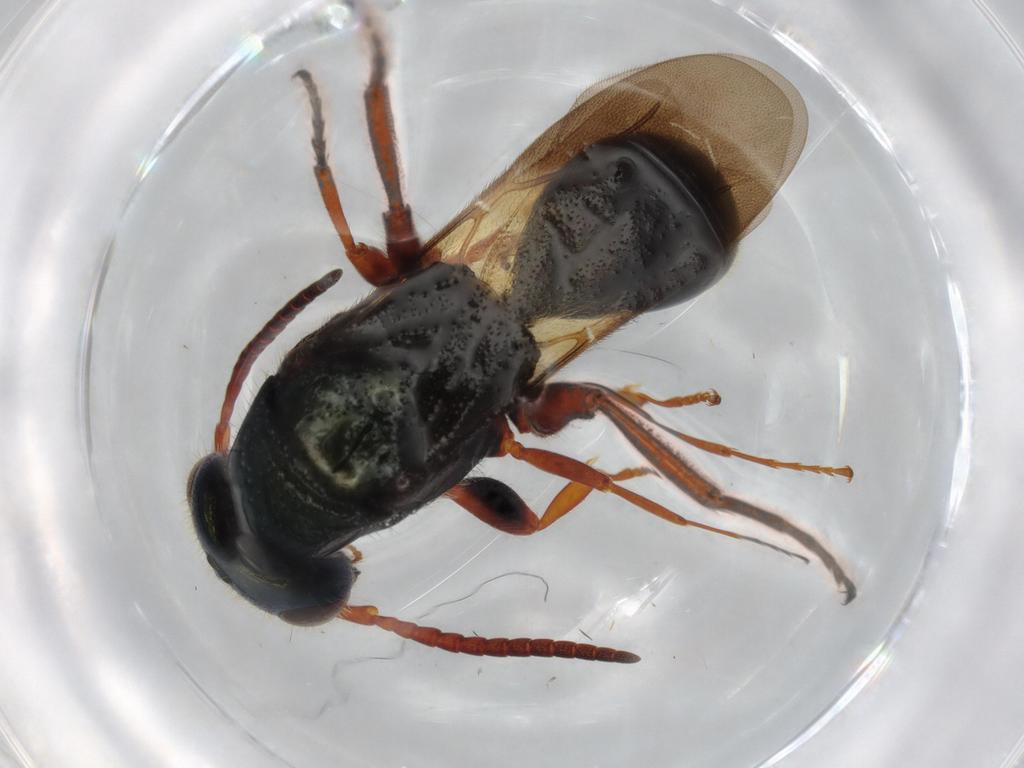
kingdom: Animalia
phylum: Arthropoda
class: Insecta
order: Hymenoptera
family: Bethylidae
